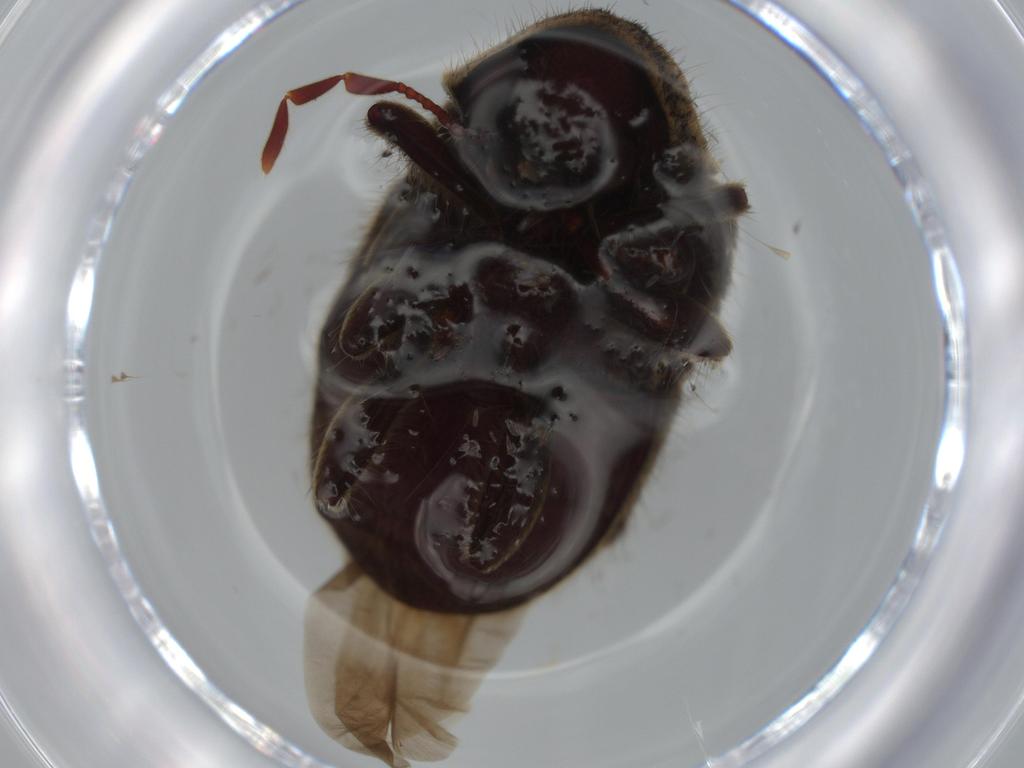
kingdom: Animalia
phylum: Arthropoda
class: Insecta
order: Coleoptera
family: Ptinidae
